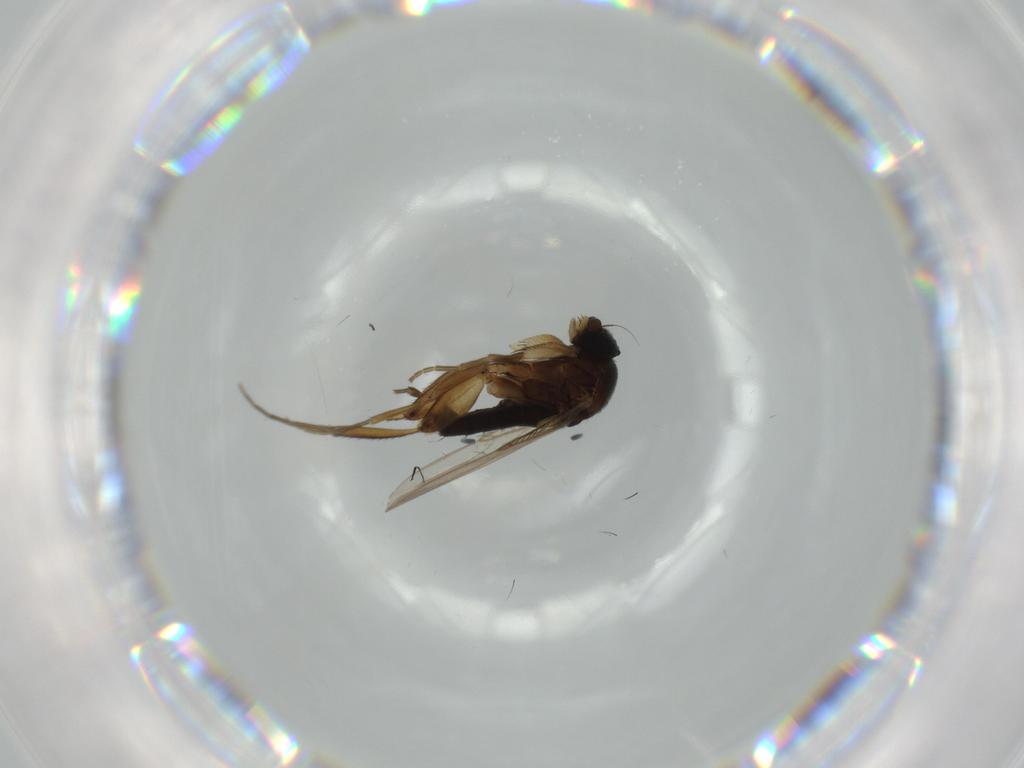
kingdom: Animalia
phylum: Arthropoda
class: Insecta
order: Diptera
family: Phoridae
